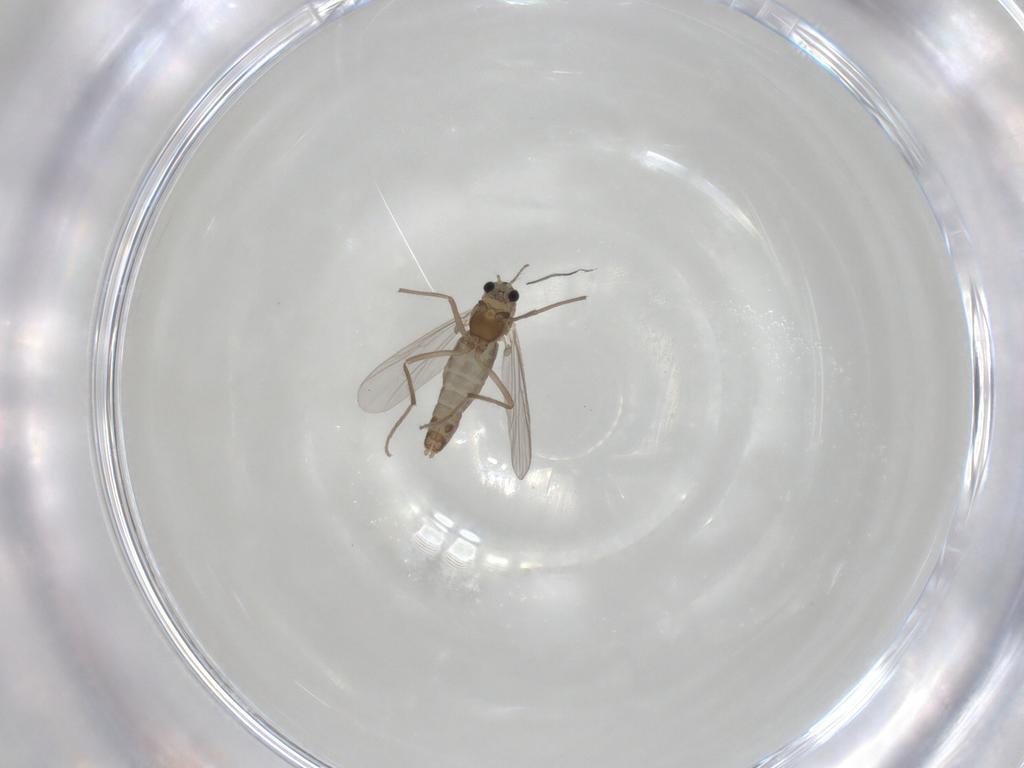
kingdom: Animalia
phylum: Arthropoda
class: Insecta
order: Diptera
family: Chironomidae
